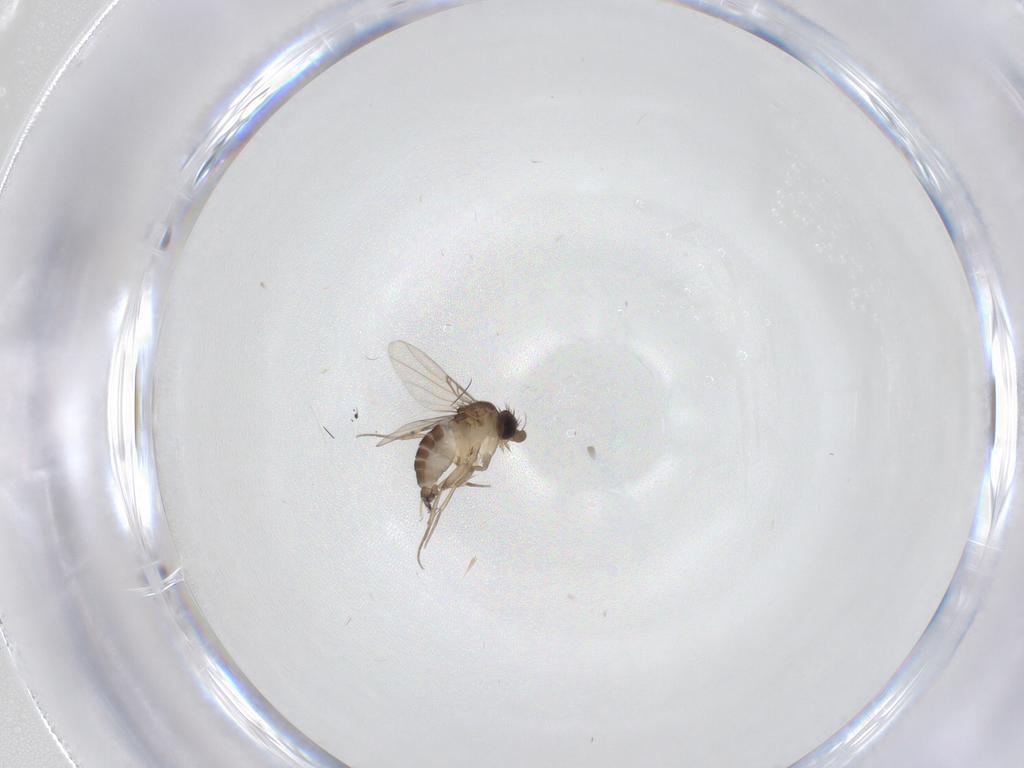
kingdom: Animalia
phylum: Arthropoda
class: Insecta
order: Diptera
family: Phoridae
